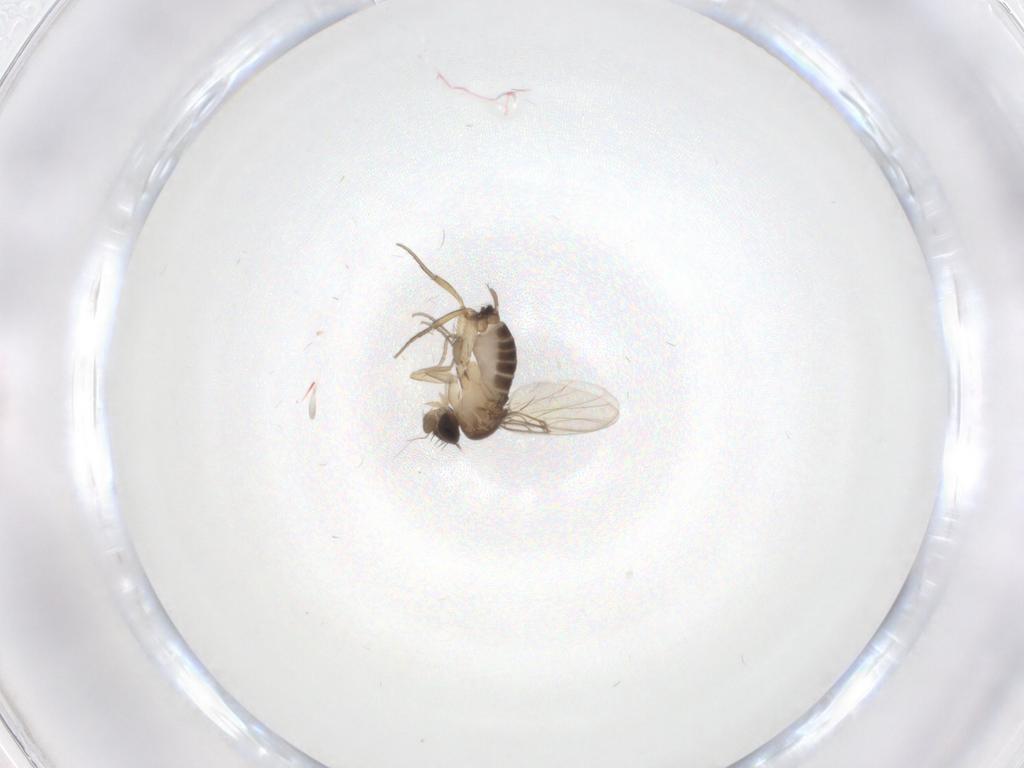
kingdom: Animalia
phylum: Arthropoda
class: Insecta
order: Diptera
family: Phoridae
